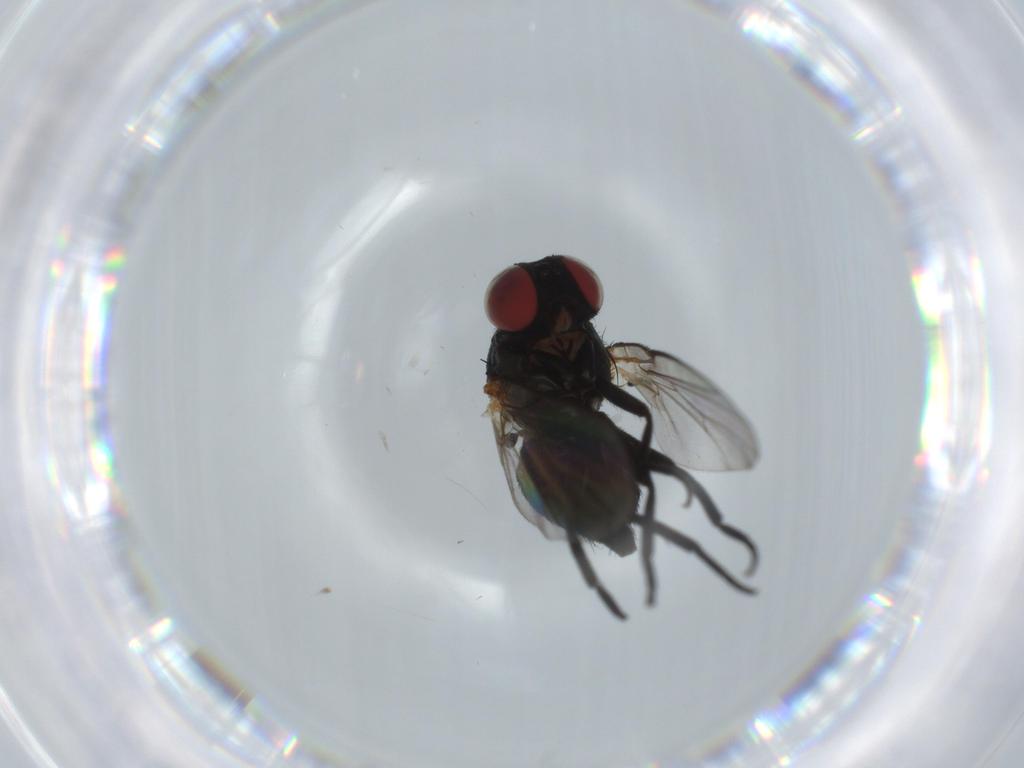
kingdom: Animalia
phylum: Arthropoda
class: Insecta
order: Diptera
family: Agromyzidae
